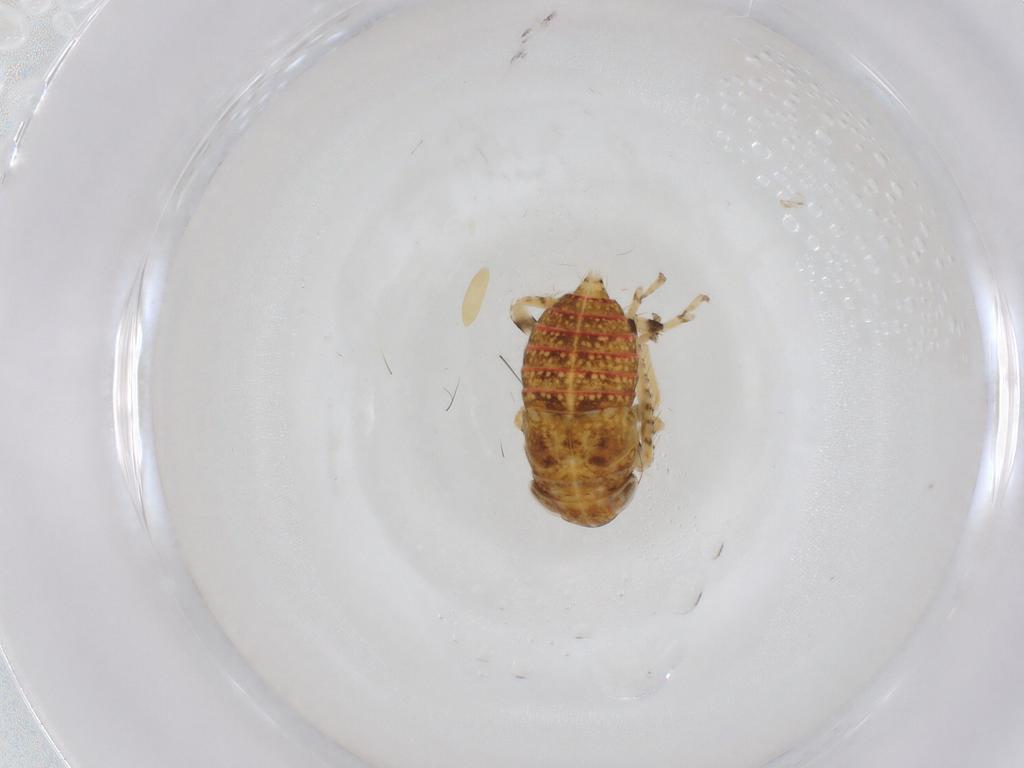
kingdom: Animalia
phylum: Arthropoda
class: Insecta
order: Hemiptera
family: Cicadellidae
